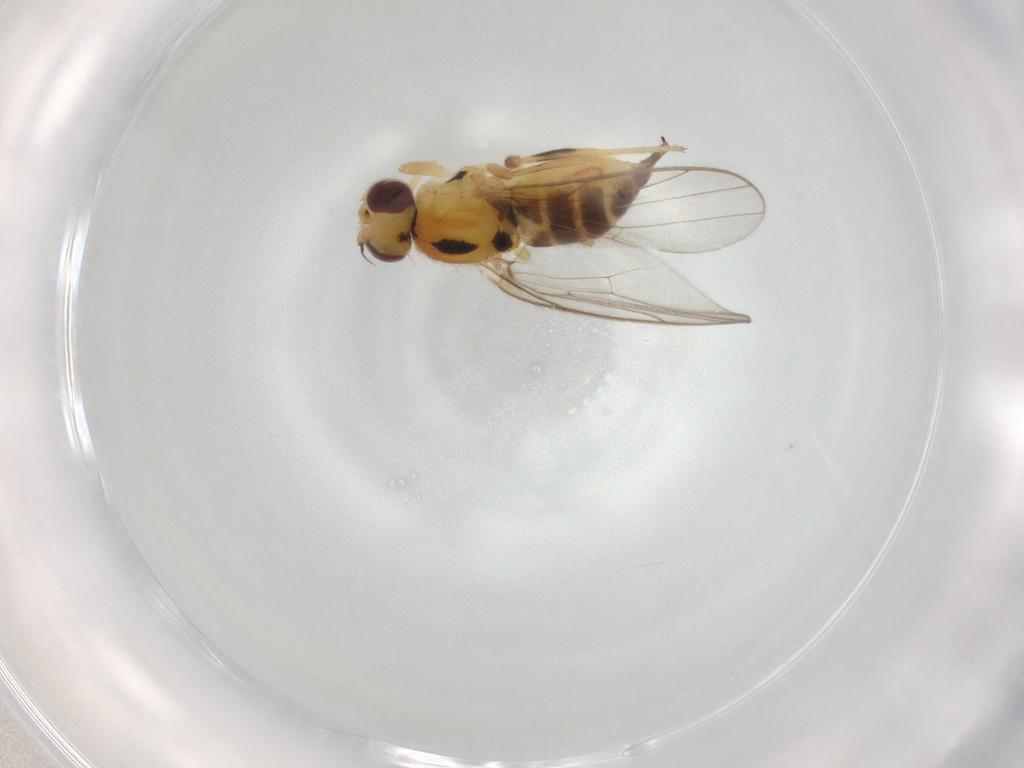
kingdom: Animalia
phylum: Arthropoda
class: Insecta
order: Diptera
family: Chloropidae
